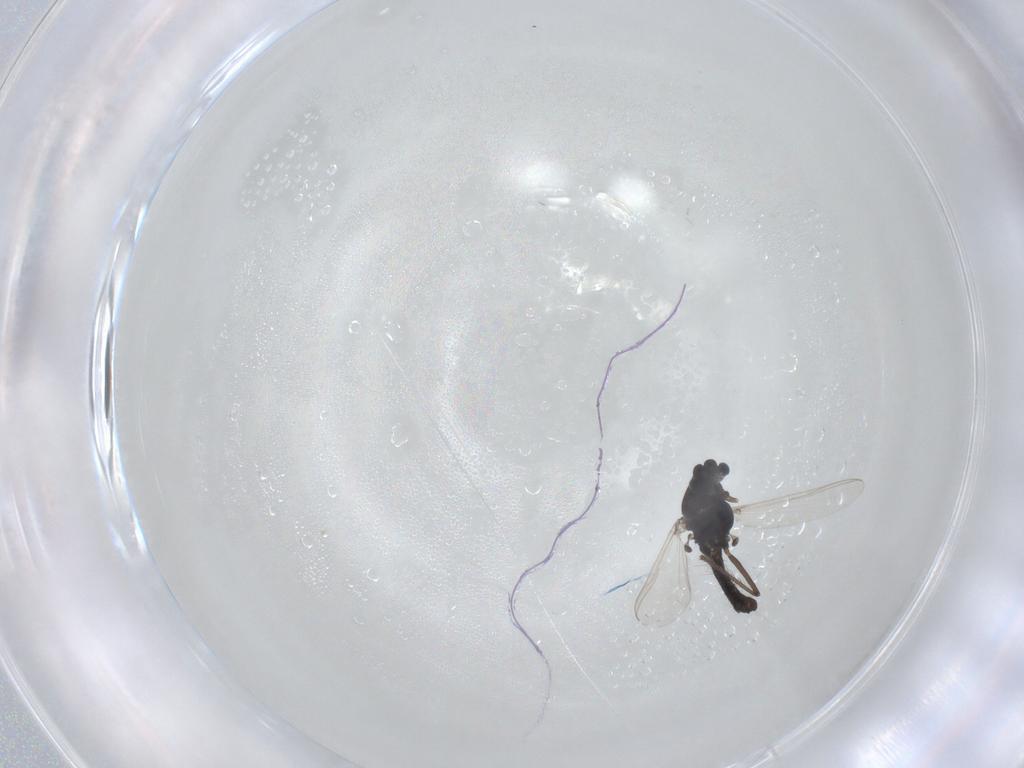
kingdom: Animalia
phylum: Arthropoda
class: Insecta
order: Diptera
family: Chironomidae
